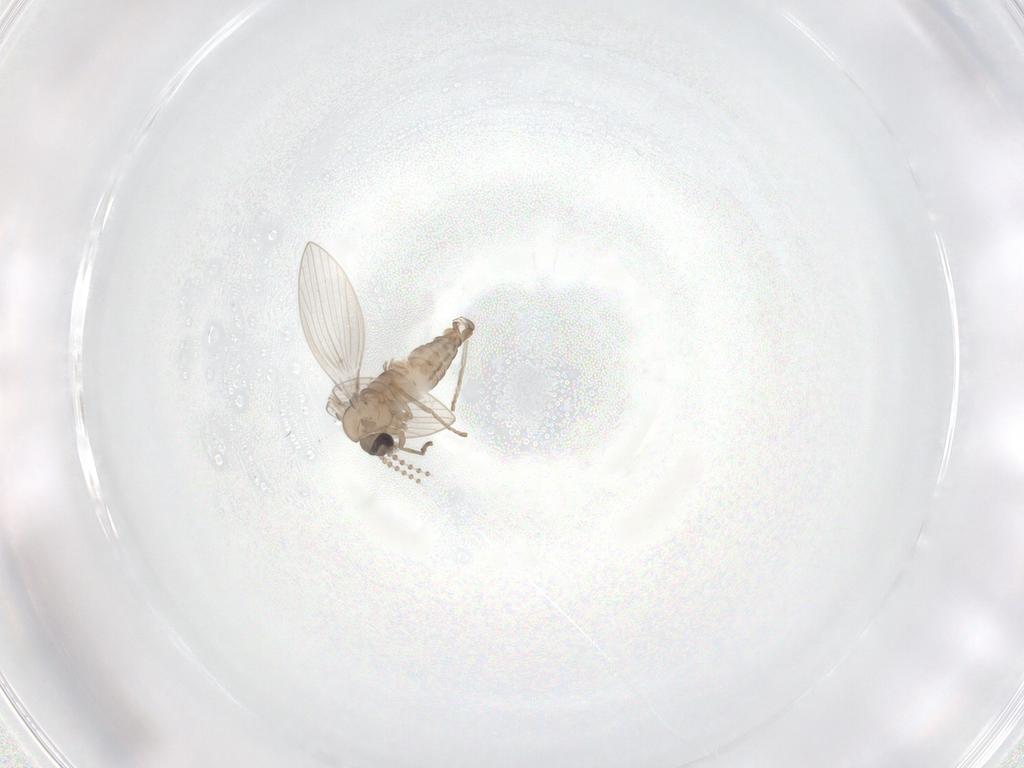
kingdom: Animalia
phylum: Arthropoda
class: Insecta
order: Diptera
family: Psychodidae
